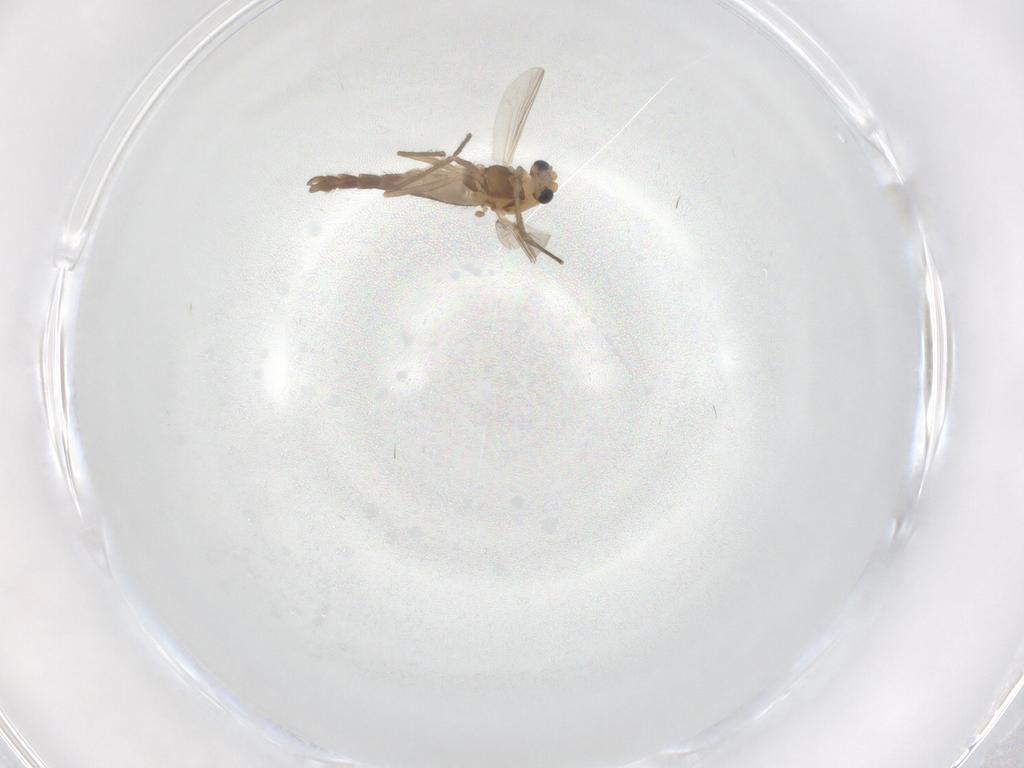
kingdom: Animalia
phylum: Arthropoda
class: Insecta
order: Diptera
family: Chironomidae
